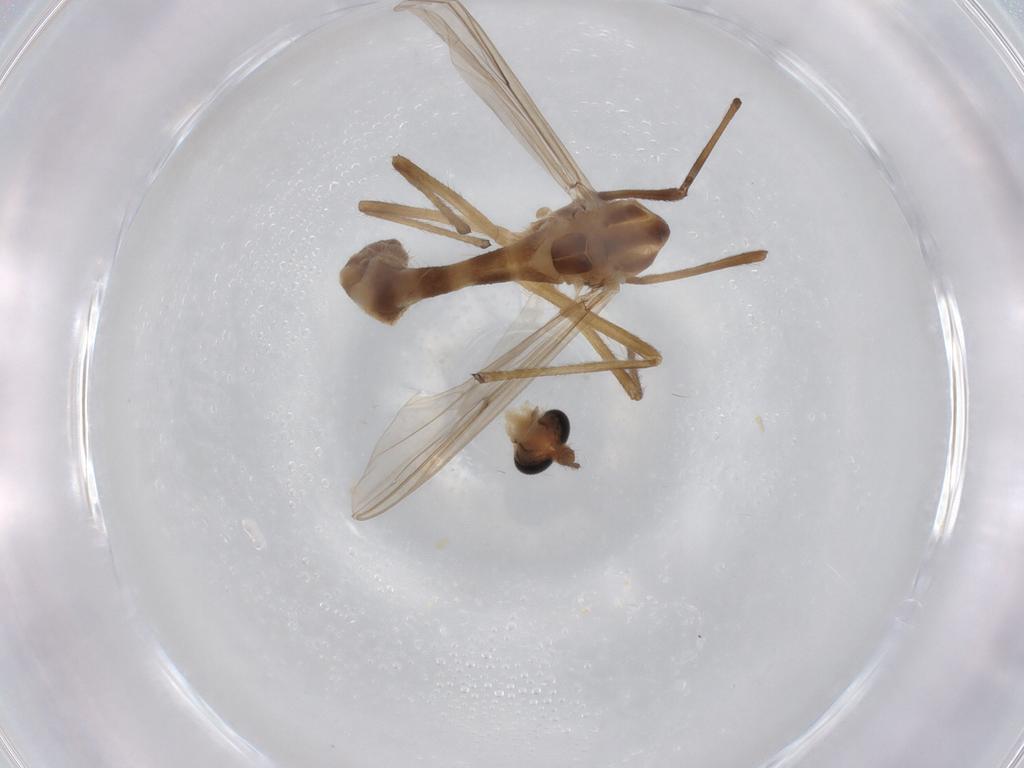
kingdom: Animalia
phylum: Arthropoda
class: Insecta
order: Diptera
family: Chironomidae
